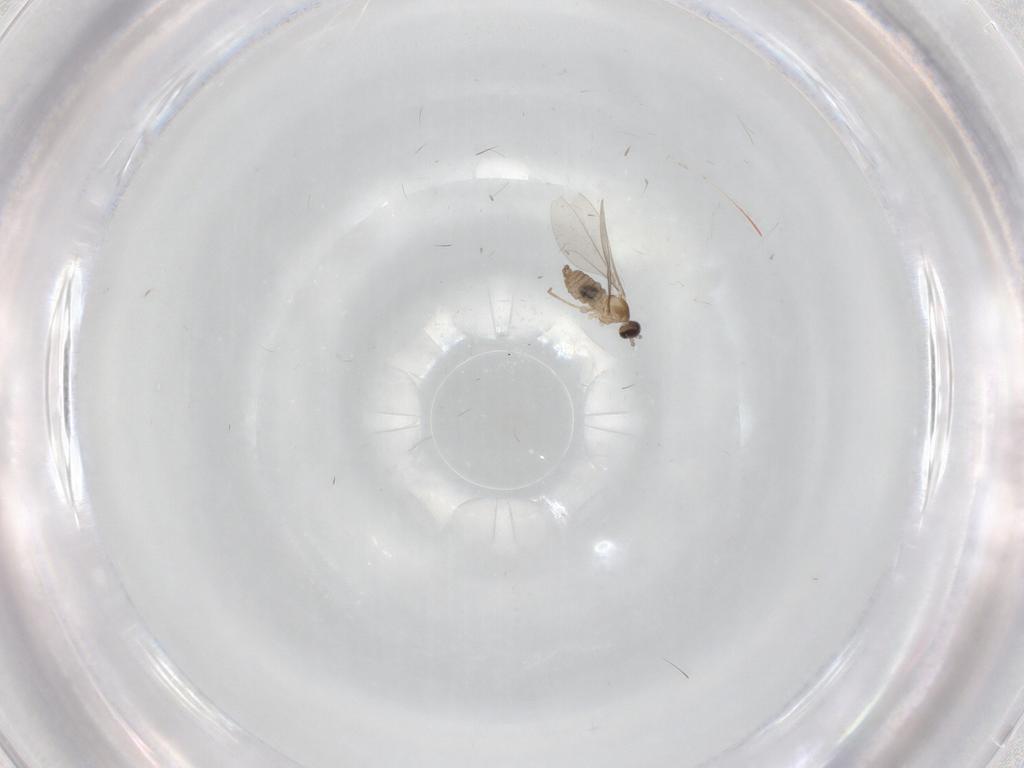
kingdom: Animalia
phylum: Arthropoda
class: Insecta
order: Diptera
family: Cecidomyiidae
